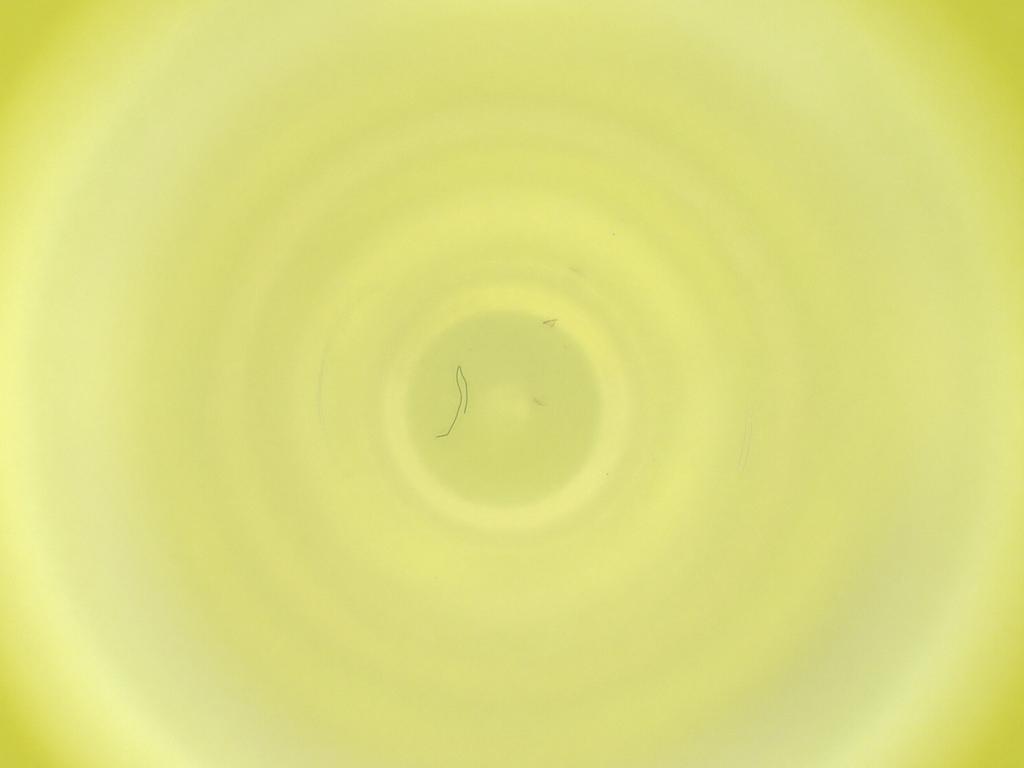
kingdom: Animalia
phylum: Arthropoda
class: Insecta
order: Diptera
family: Cecidomyiidae
